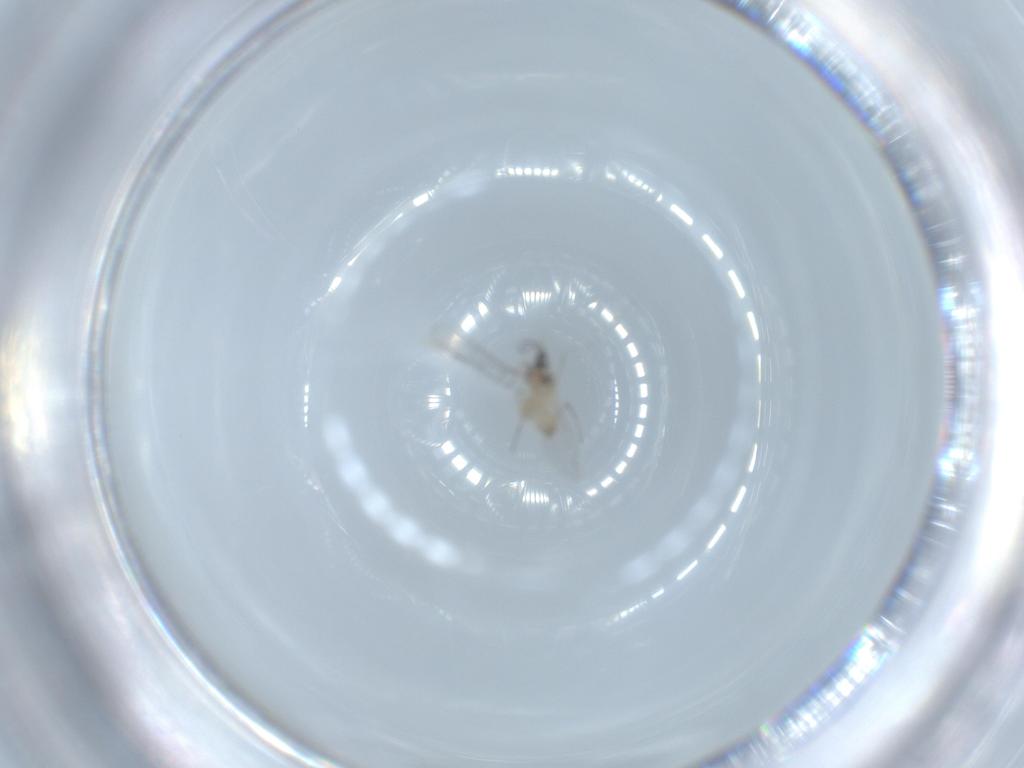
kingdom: Animalia
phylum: Arthropoda
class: Insecta
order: Diptera
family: Cecidomyiidae
